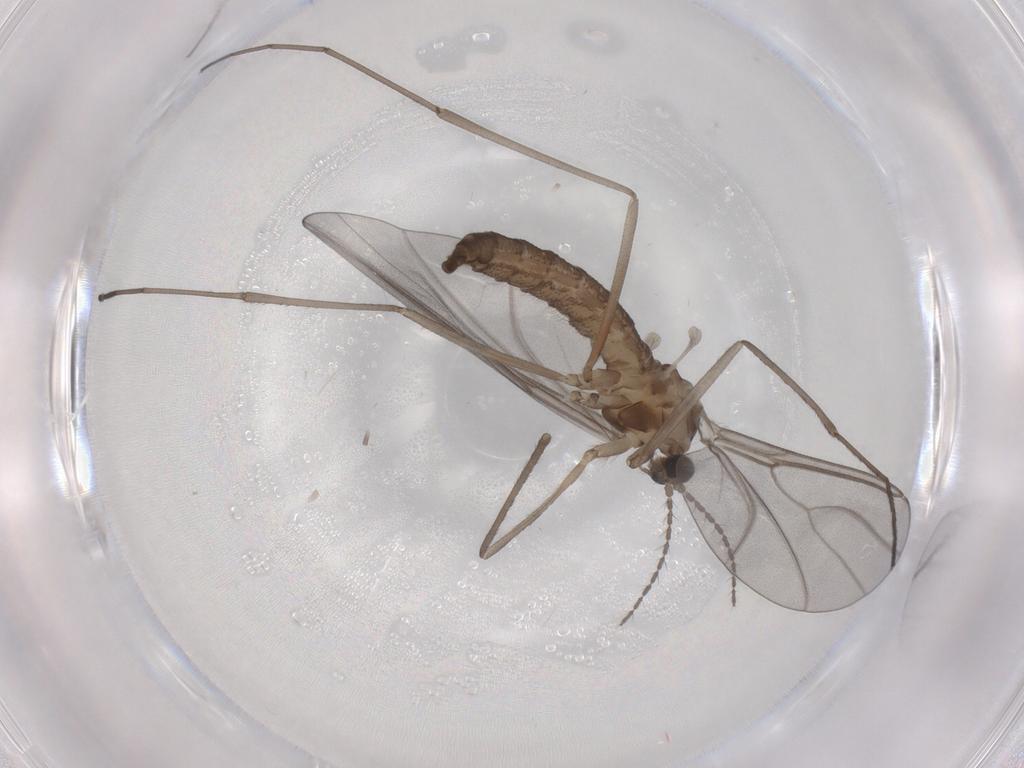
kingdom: Animalia
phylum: Arthropoda
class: Insecta
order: Diptera
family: Cecidomyiidae
